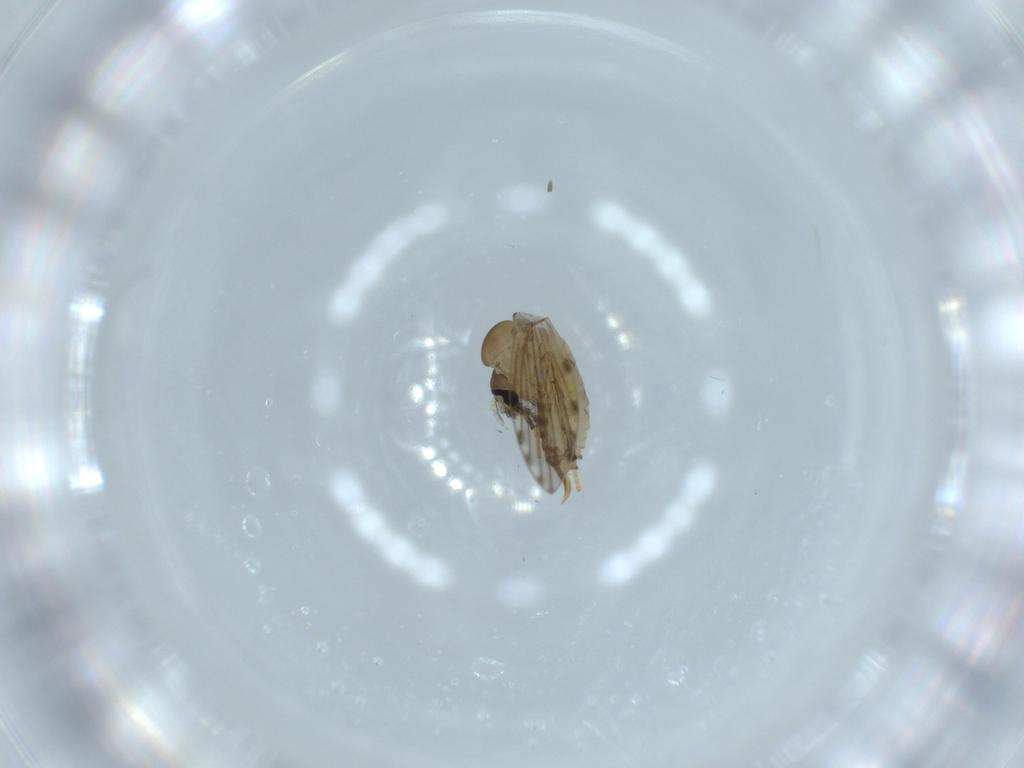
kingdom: Animalia
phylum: Arthropoda
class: Insecta
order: Diptera
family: Psychodidae
